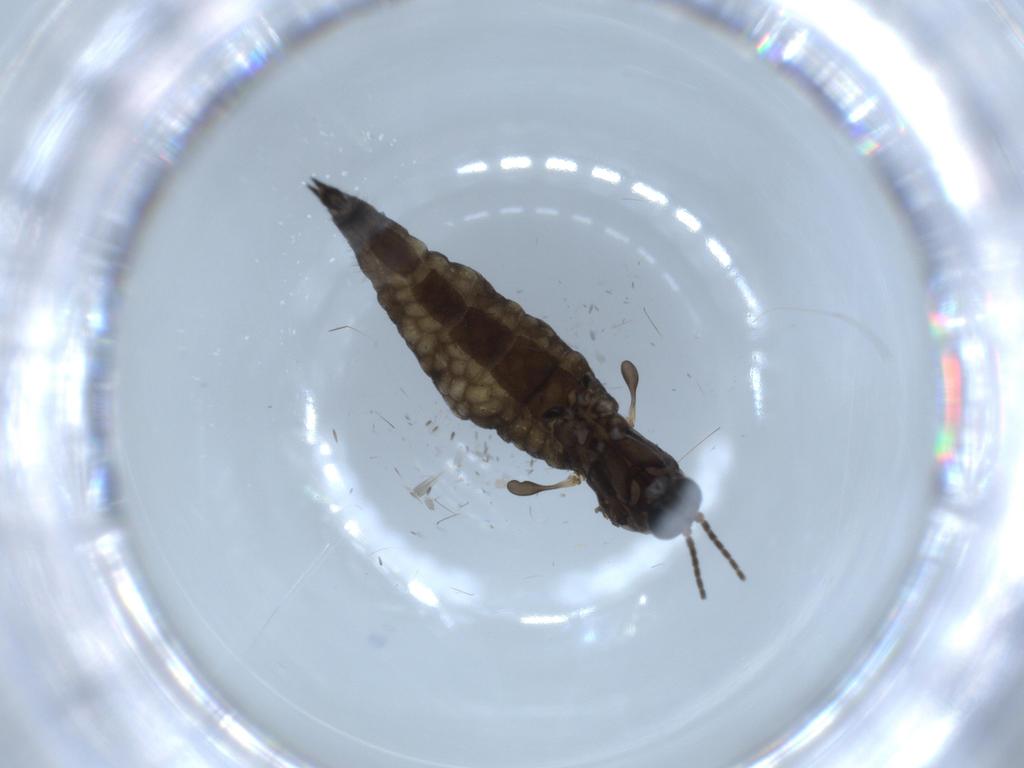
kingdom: Animalia
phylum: Arthropoda
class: Insecta
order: Diptera
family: Sciaridae
